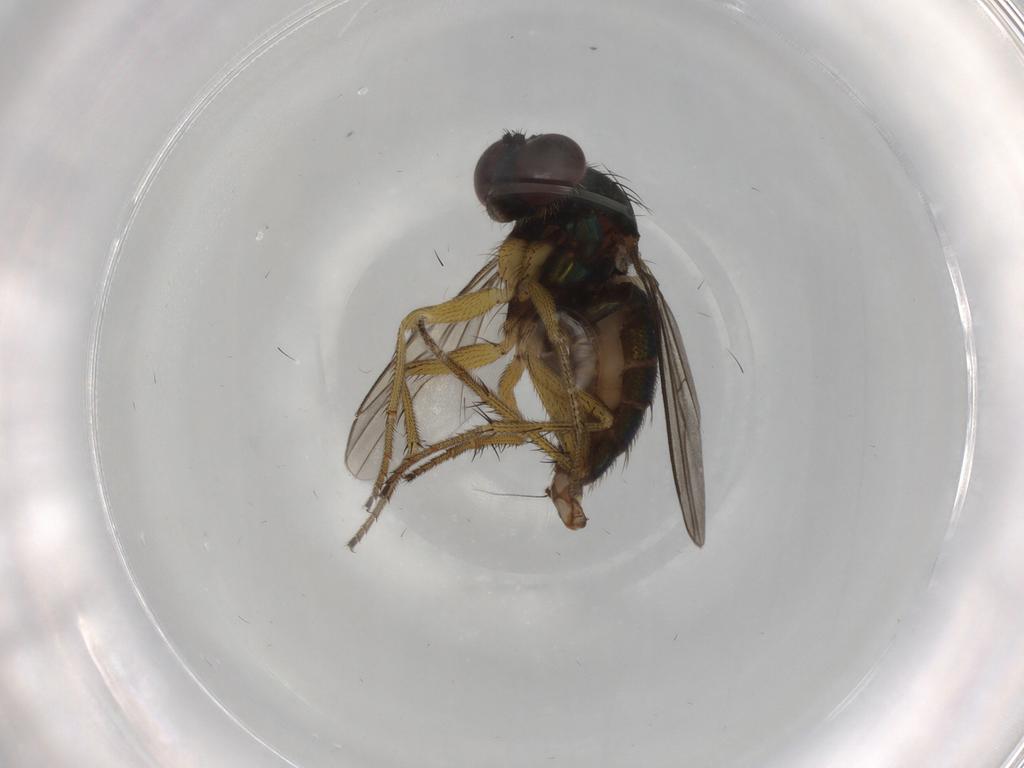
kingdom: Animalia
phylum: Arthropoda
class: Insecta
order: Diptera
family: Dolichopodidae
